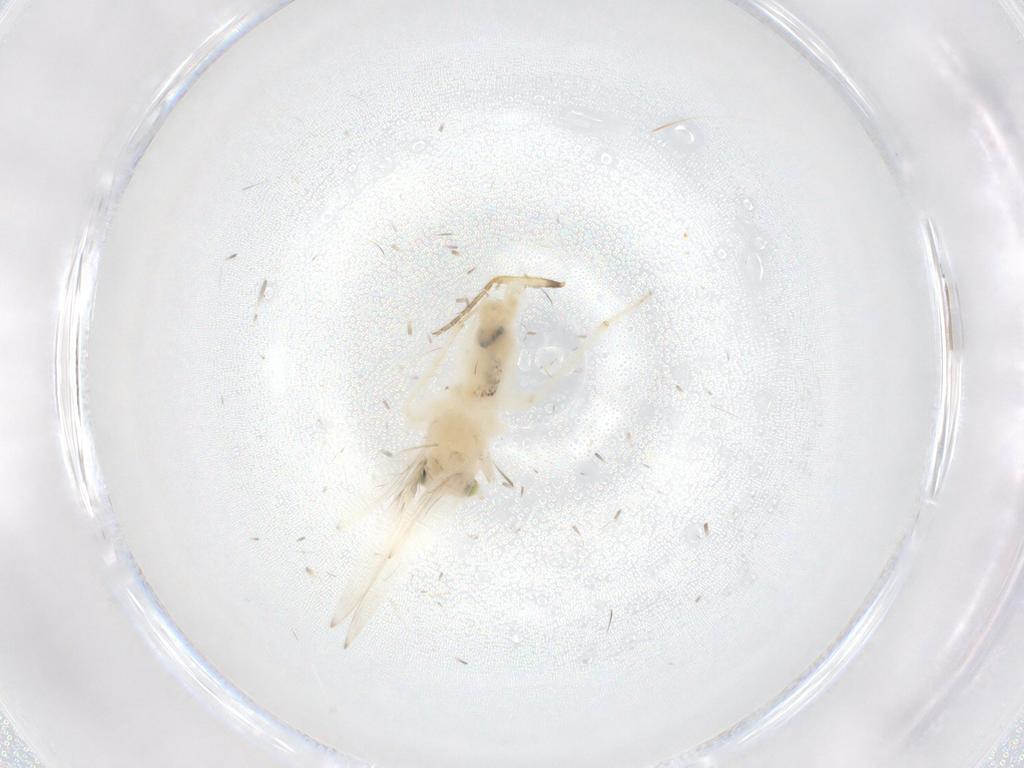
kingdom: Animalia
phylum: Arthropoda
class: Insecta
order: Psocodea
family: Lepidopsocidae
